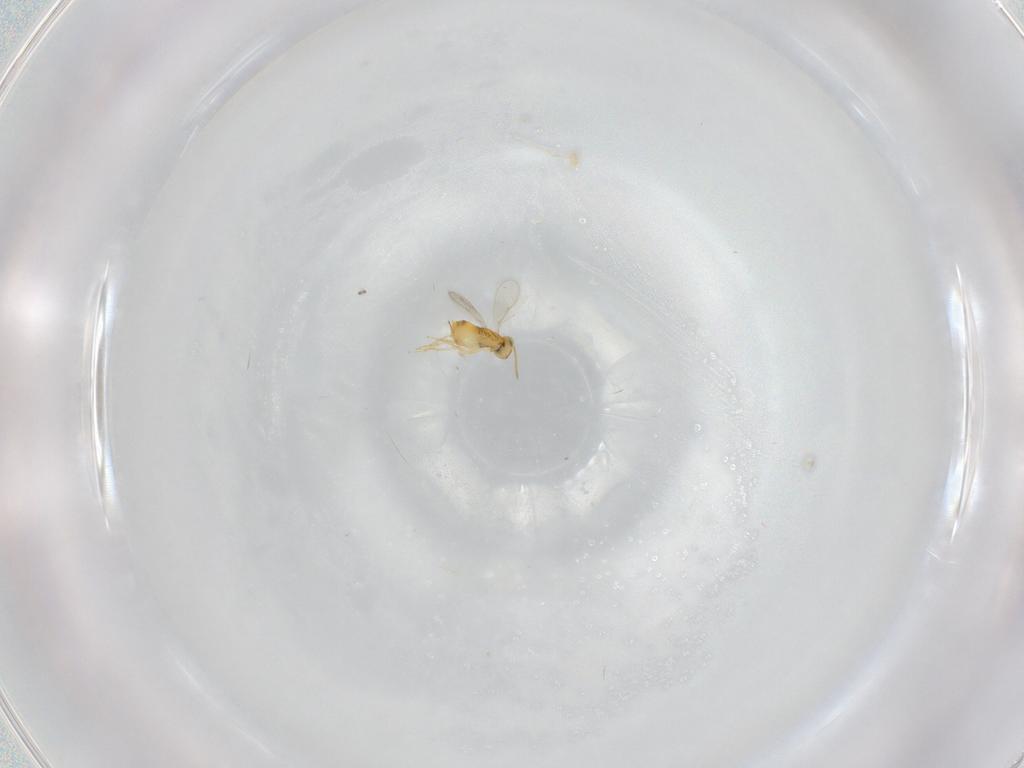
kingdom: Animalia
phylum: Arthropoda
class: Insecta
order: Hymenoptera
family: Aphelinidae
